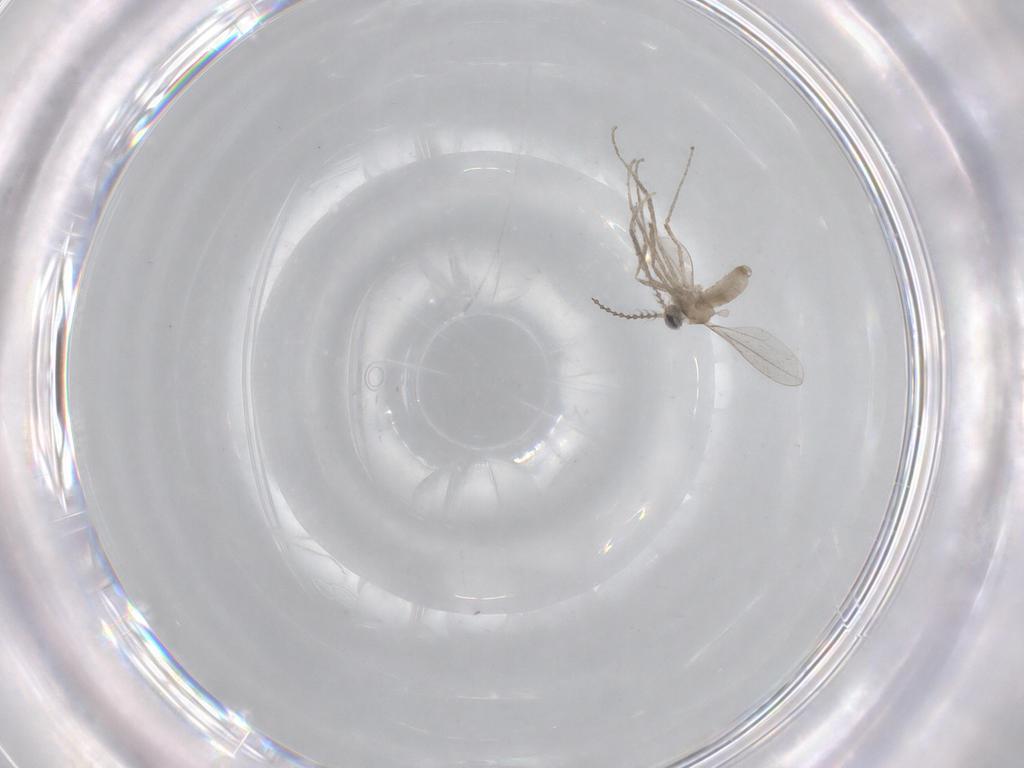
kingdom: Animalia
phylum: Arthropoda
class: Insecta
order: Diptera
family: Chironomidae
